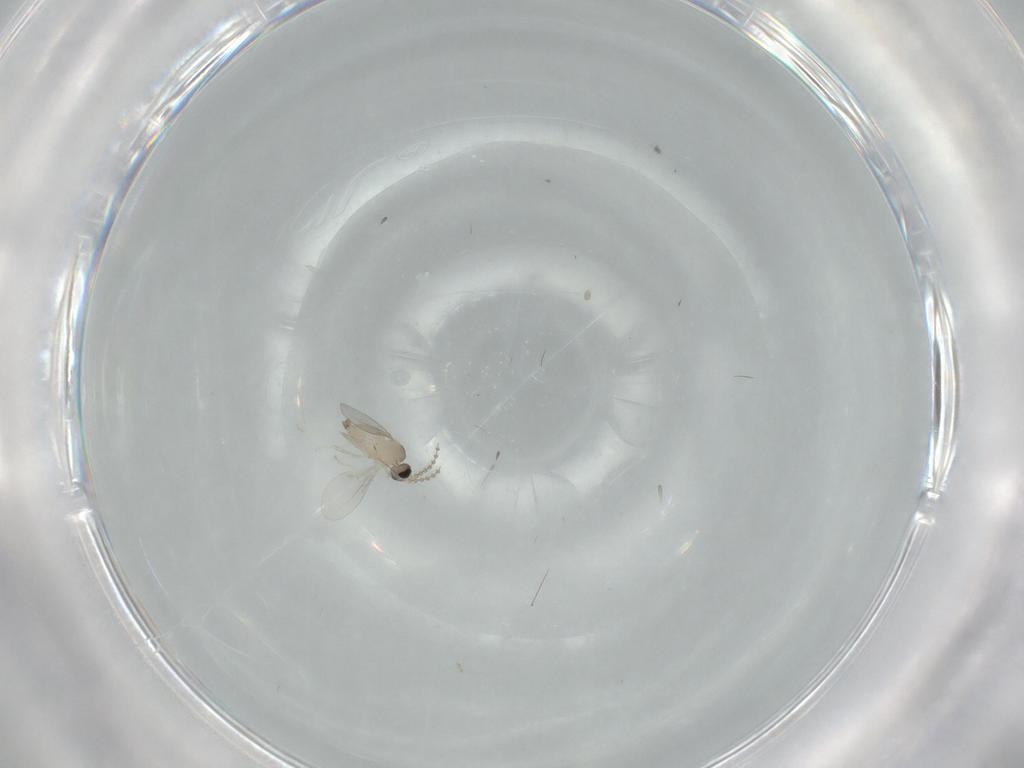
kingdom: Animalia
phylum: Arthropoda
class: Insecta
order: Diptera
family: Cecidomyiidae
